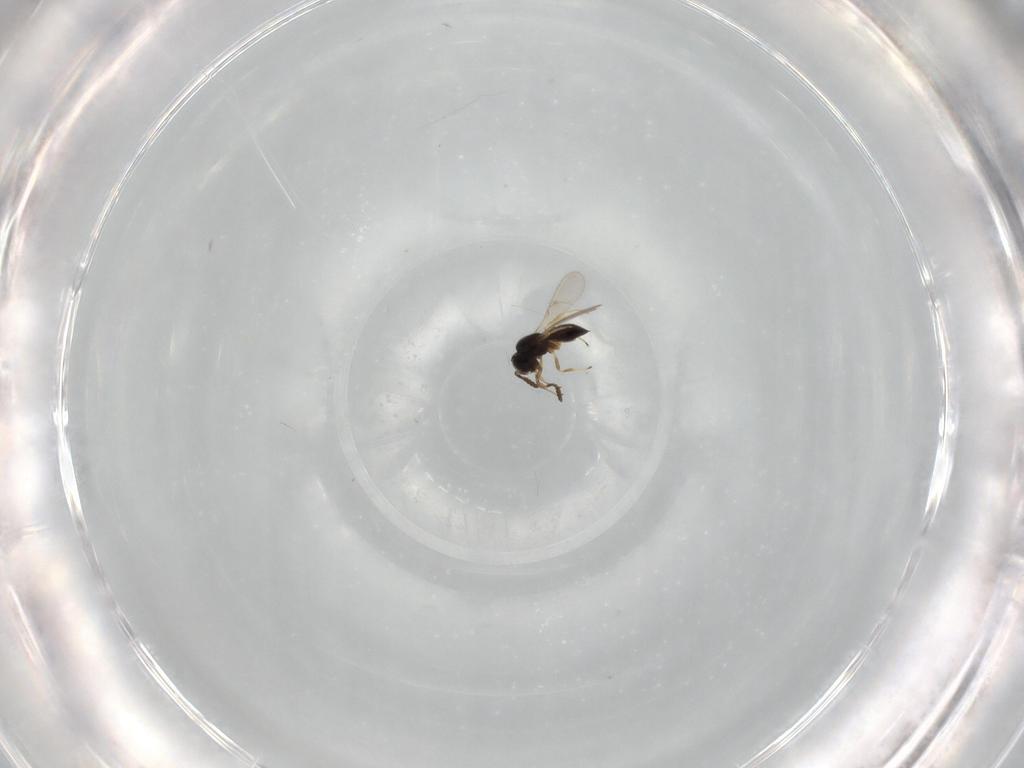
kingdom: Animalia
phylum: Arthropoda
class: Insecta
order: Hymenoptera
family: Scelionidae
